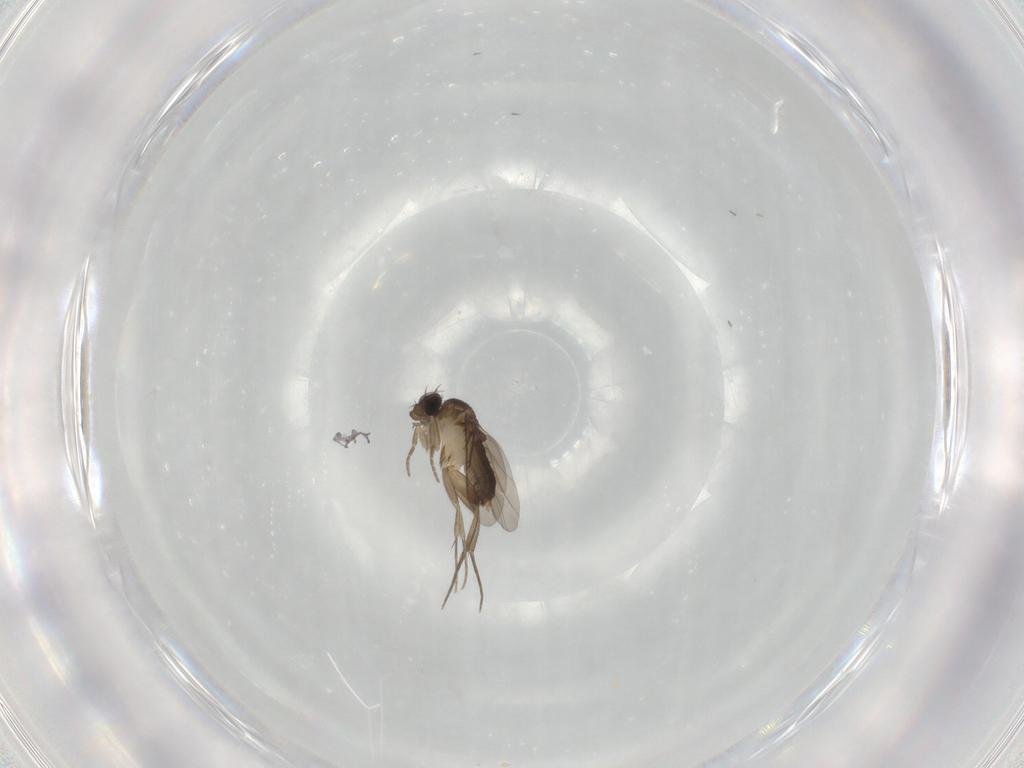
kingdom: Animalia
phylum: Arthropoda
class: Insecta
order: Diptera
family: Phoridae
